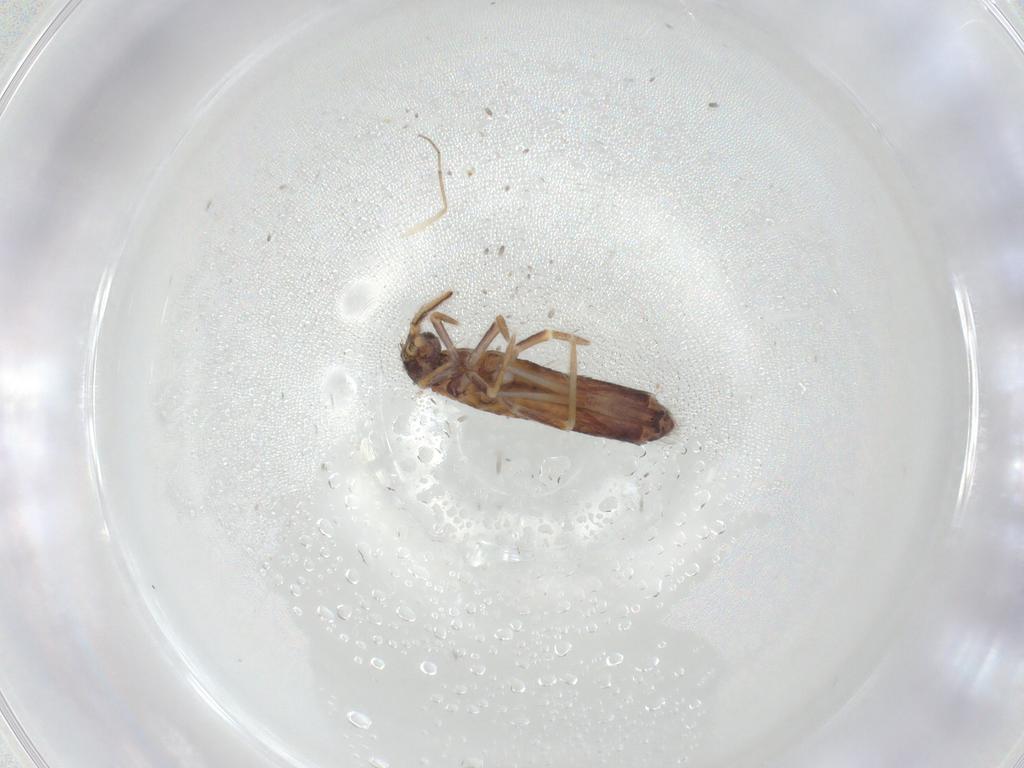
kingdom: Animalia
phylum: Arthropoda
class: Collembola
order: Entomobryomorpha
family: Entomobryidae
